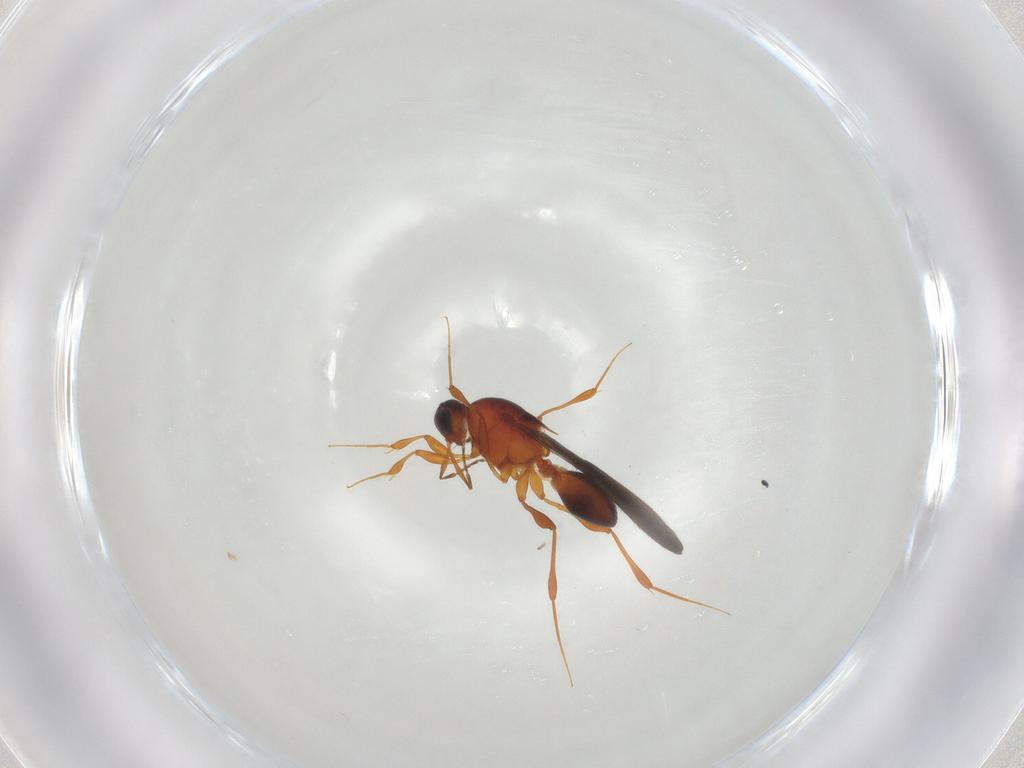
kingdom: Animalia
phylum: Arthropoda
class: Insecta
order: Hymenoptera
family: Platygastridae
